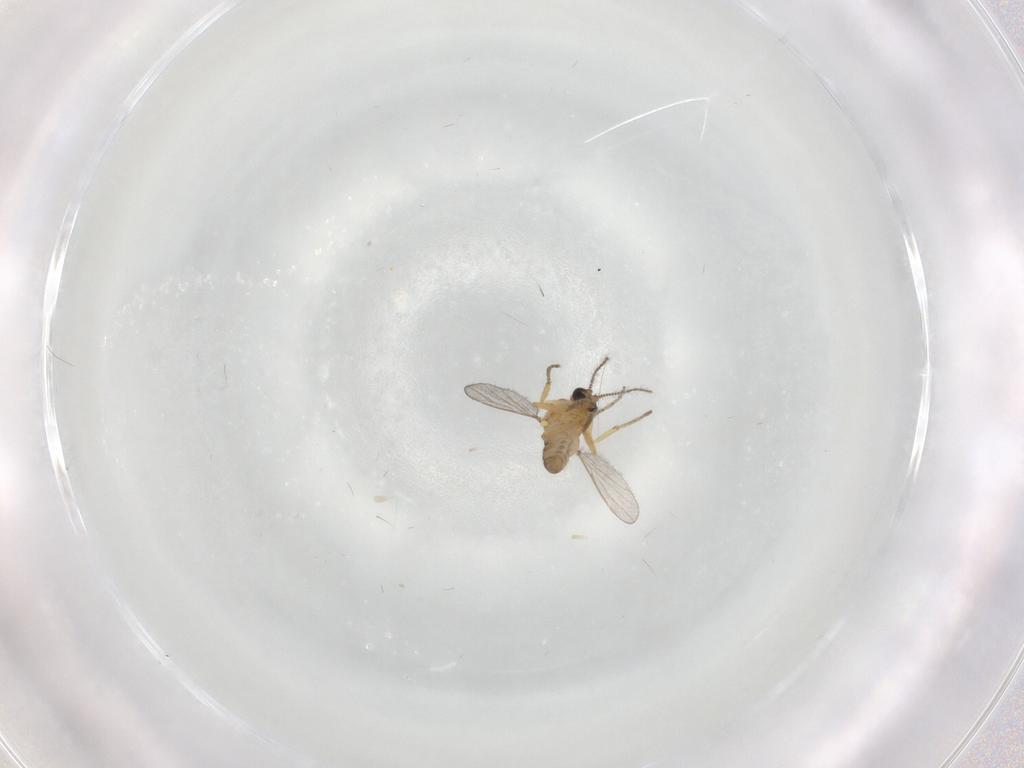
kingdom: Animalia
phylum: Arthropoda
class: Insecta
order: Diptera
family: Ceratopogonidae
